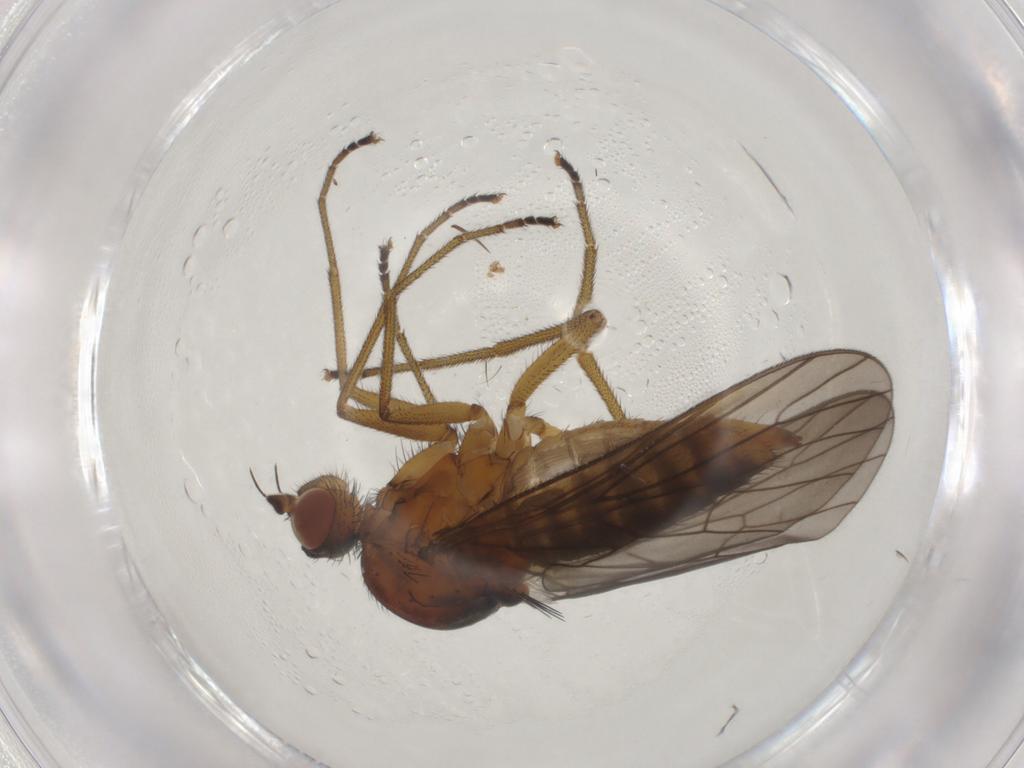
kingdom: Animalia
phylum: Arthropoda
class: Insecta
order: Diptera
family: Brachystomatidae
